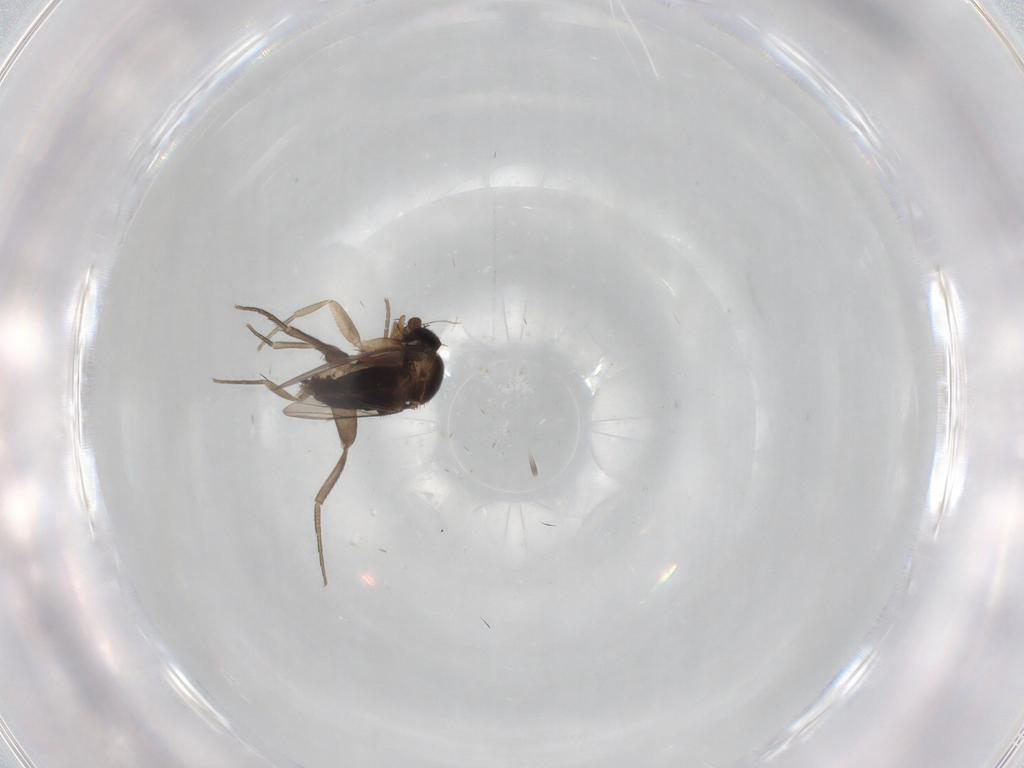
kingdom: Animalia
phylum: Arthropoda
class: Insecta
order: Diptera
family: Phoridae
